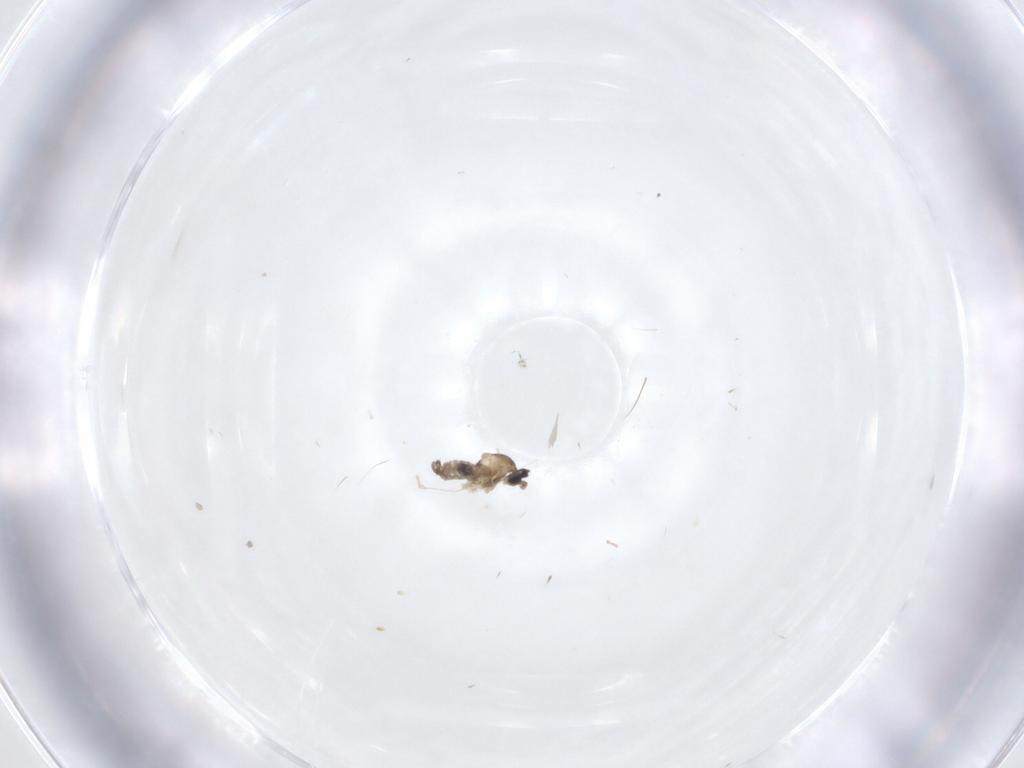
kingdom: Animalia
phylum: Arthropoda
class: Insecta
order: Diptera
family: Cecidomyiidae
